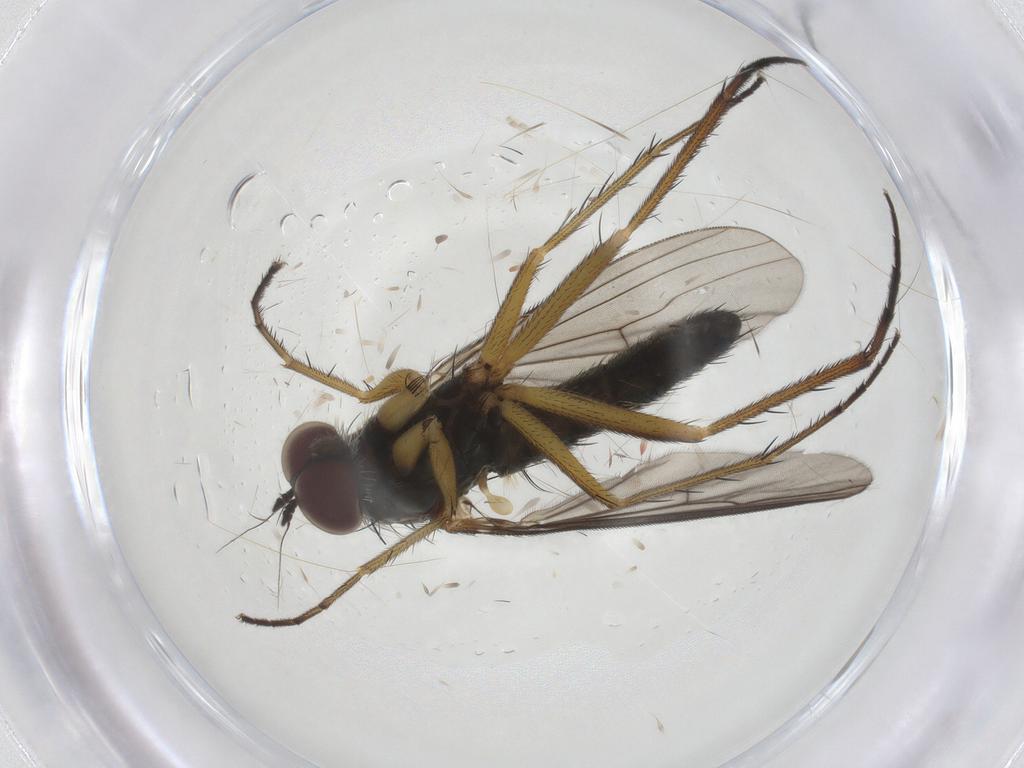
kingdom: Animalia
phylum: Arthropoda
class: Insecta
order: Diptera
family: Dolichopodidae
